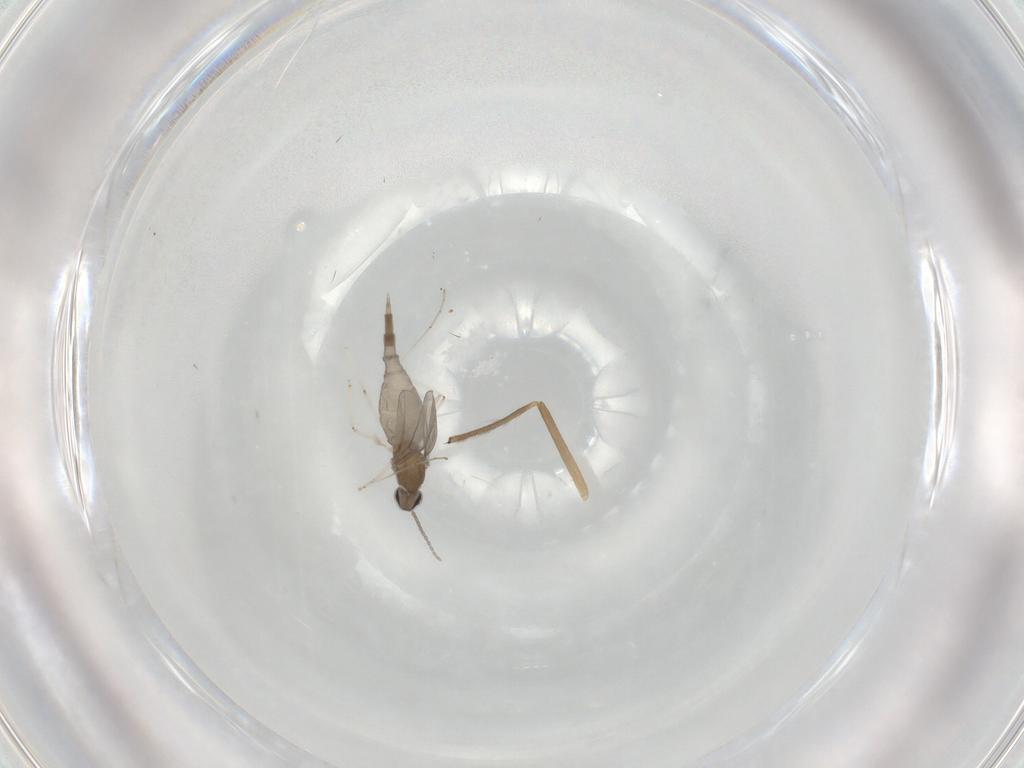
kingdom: Animalia
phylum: Arthropoda
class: Insecta
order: Diptera
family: Cecidomyiidae
